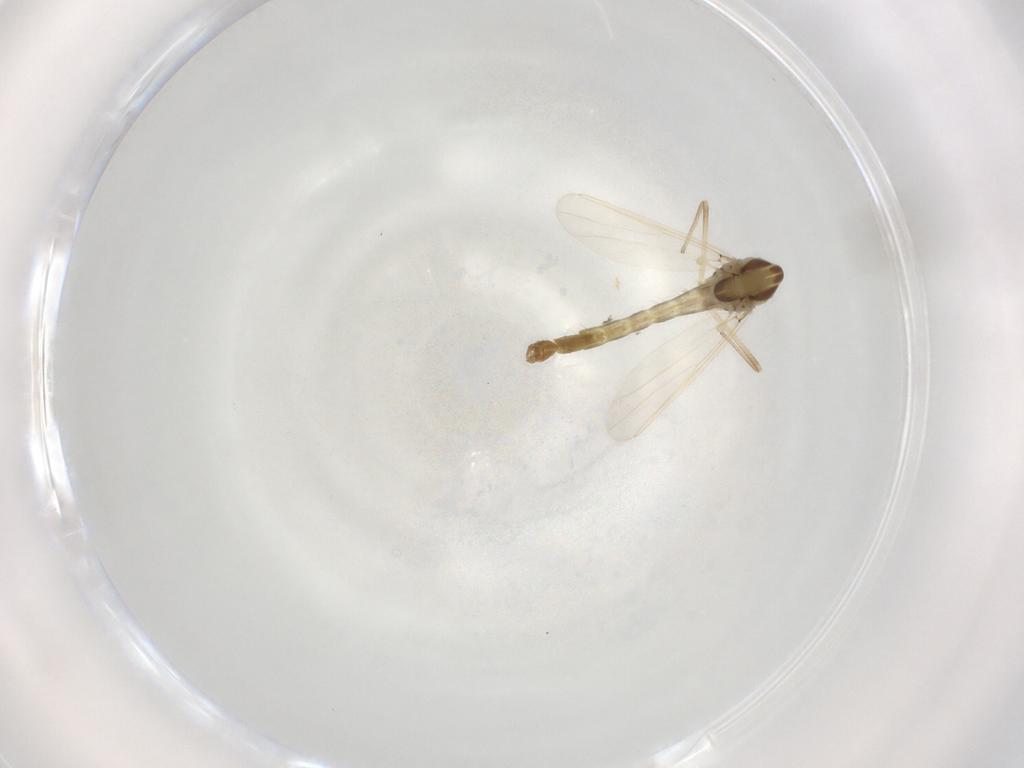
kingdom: Animalia
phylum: Arthropoda
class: Insecta
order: Diptera
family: Chironomidae
